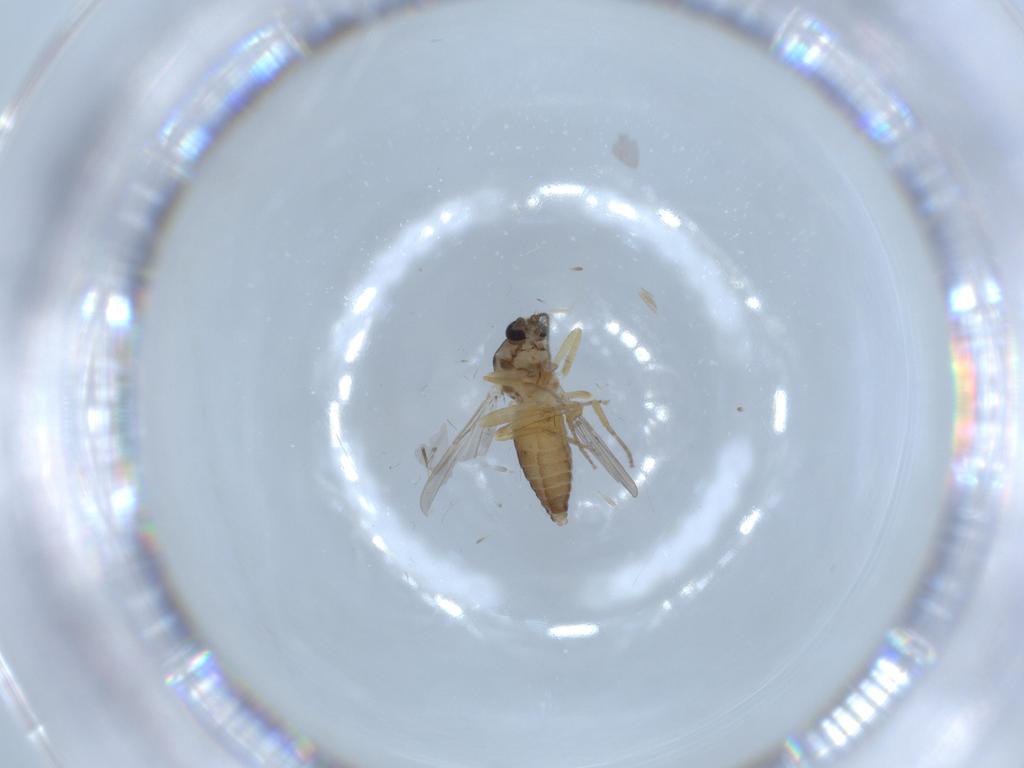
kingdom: Animalia
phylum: Arthropoda
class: Insecta
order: Diptera
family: Ceratopogonidae
